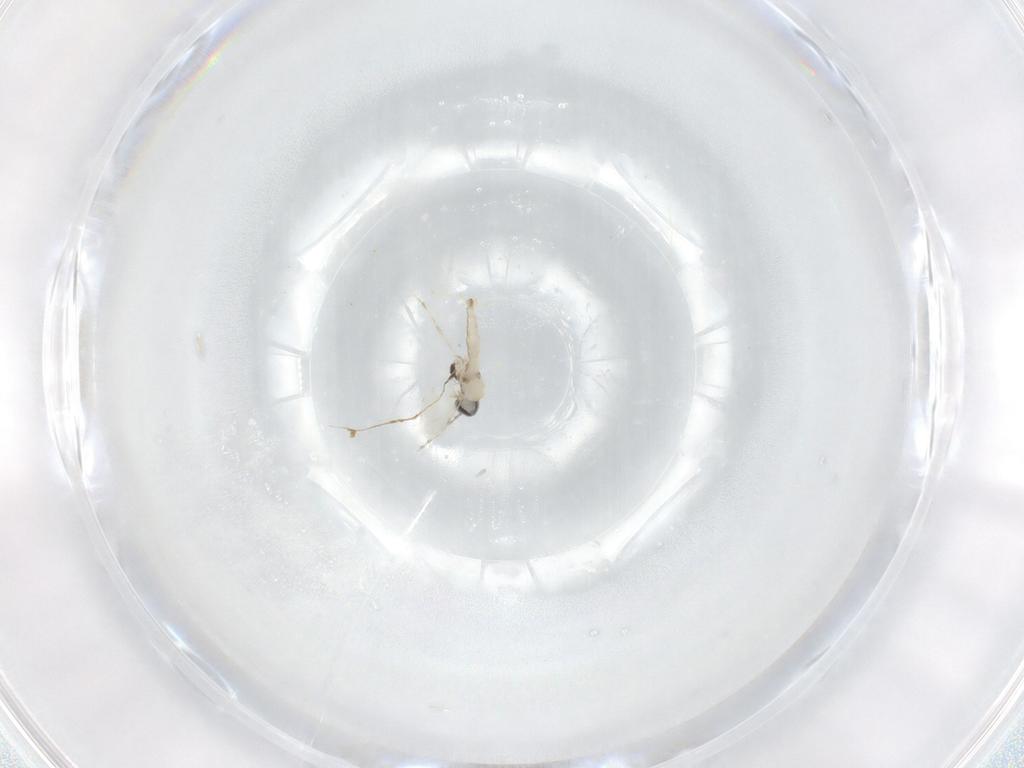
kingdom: Animalia
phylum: Arthropoda
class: Insecta
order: Diptera
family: Cecidomyiidae
